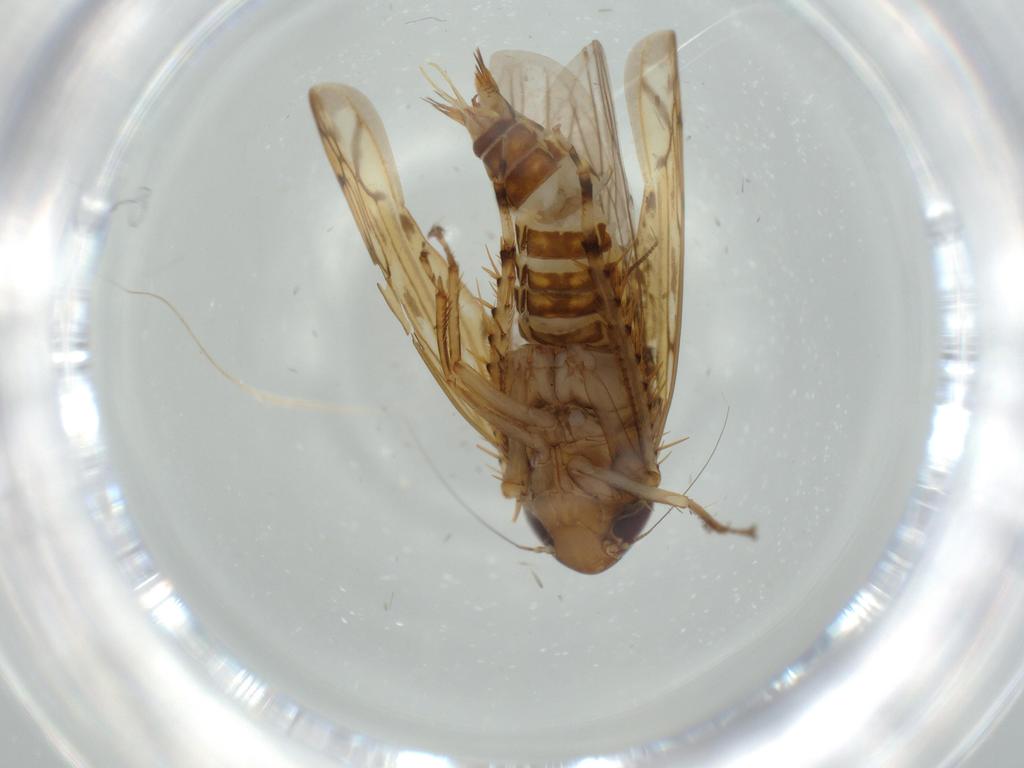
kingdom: Animalia
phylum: Arthropoda
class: Insecta
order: Hemiptera
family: Cicadellidae
